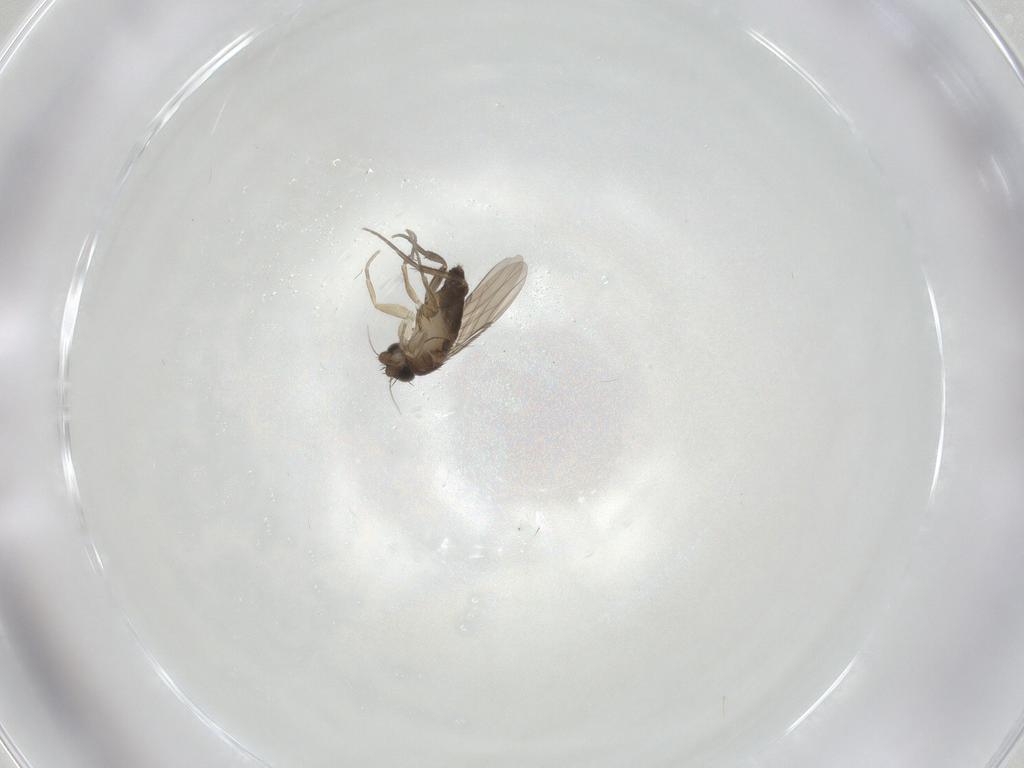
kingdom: Animalia
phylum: Arthropoda
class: Insecta
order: Diptera
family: Phoridae
